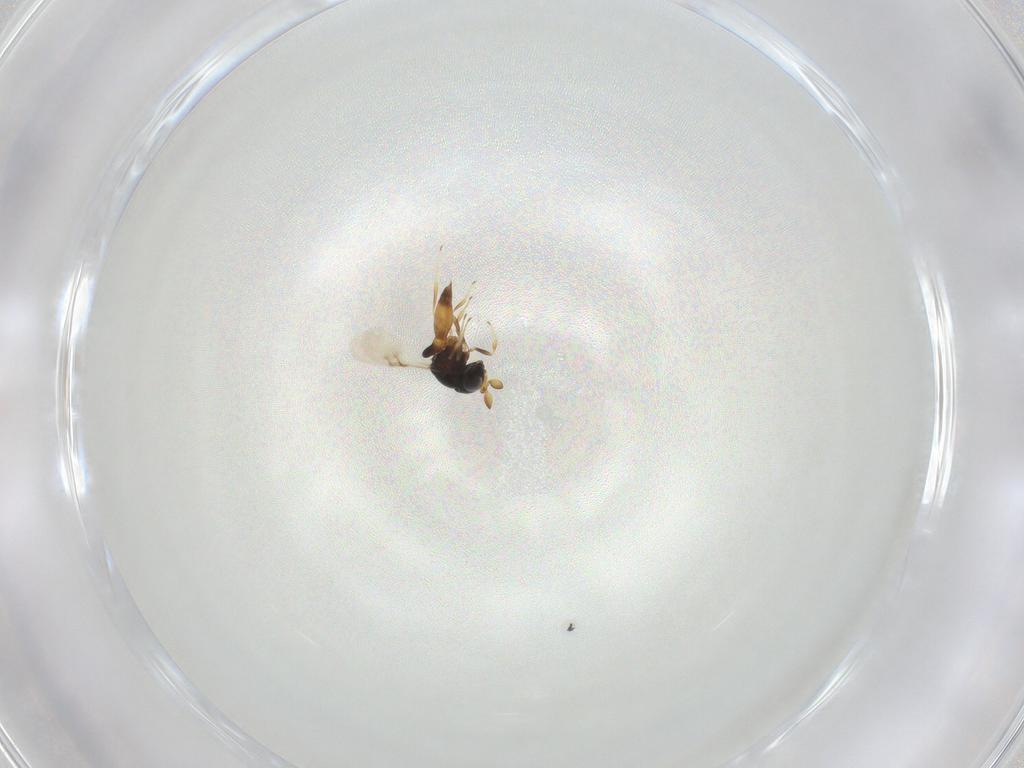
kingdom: Animalia
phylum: Arthropoda
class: Insecta
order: Hymenoptera
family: Scelionidae
